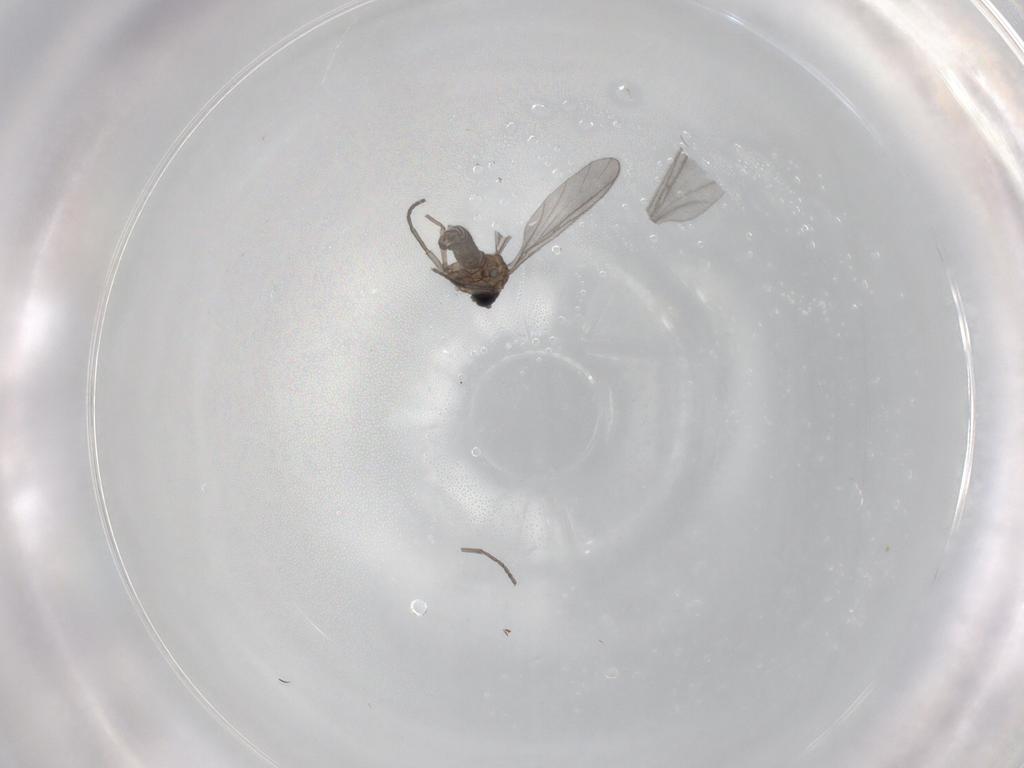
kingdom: Animalia
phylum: Arthropoda
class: Insecta
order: Diptera
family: Sciaridae
